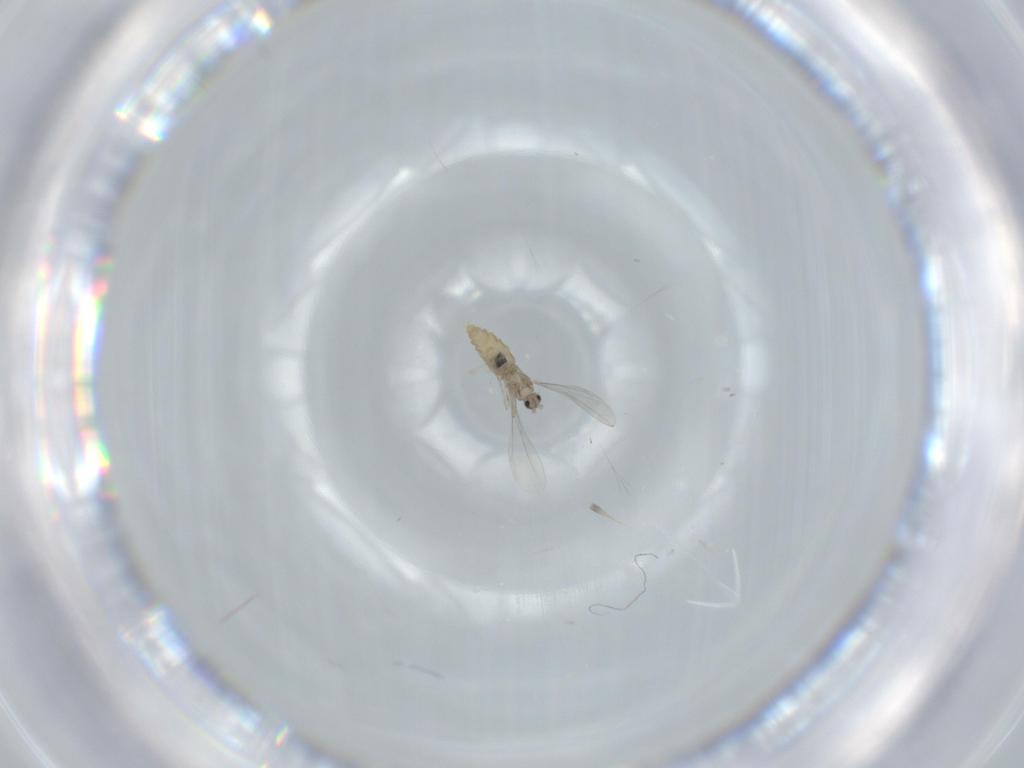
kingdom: Animalia
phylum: Arthropoda
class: Insecta
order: Diptera
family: Cecidomyiidae
